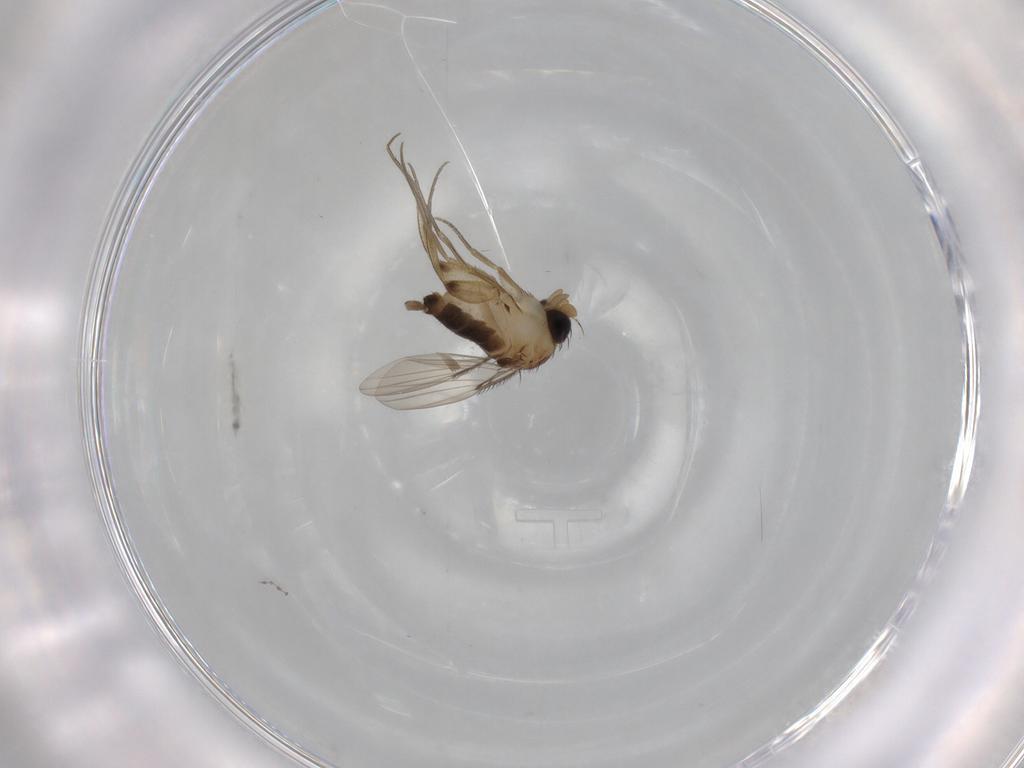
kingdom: Animalia
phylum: Arthropoda
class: Insecta
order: Diptera
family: Phoridae
